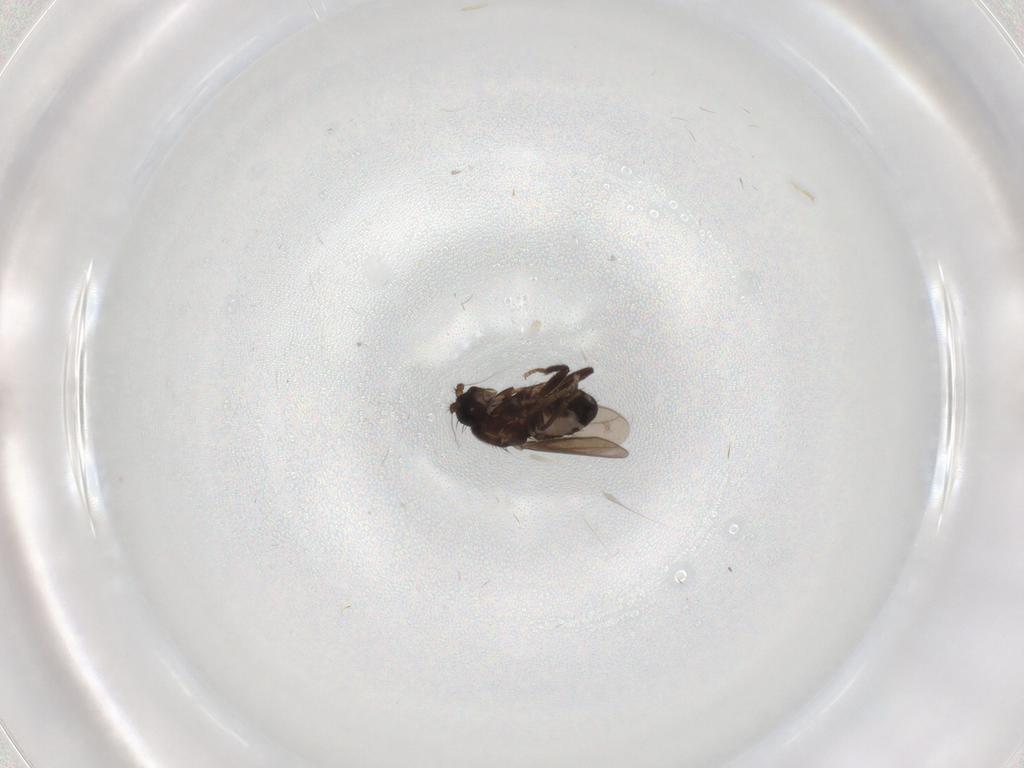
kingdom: Animalia
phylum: Arthropoda
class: Insecta
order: Diptera
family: Sphaeroceridae
